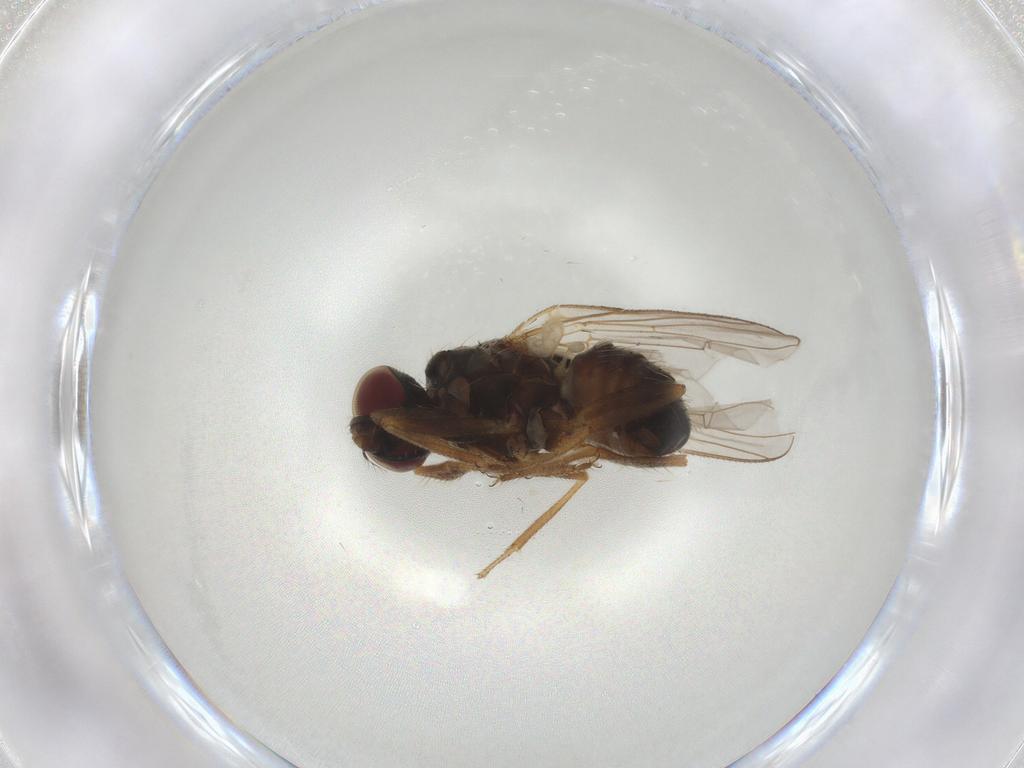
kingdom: Animalia
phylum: Arthropoda
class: Insecta
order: Diptera
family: Muscidae
